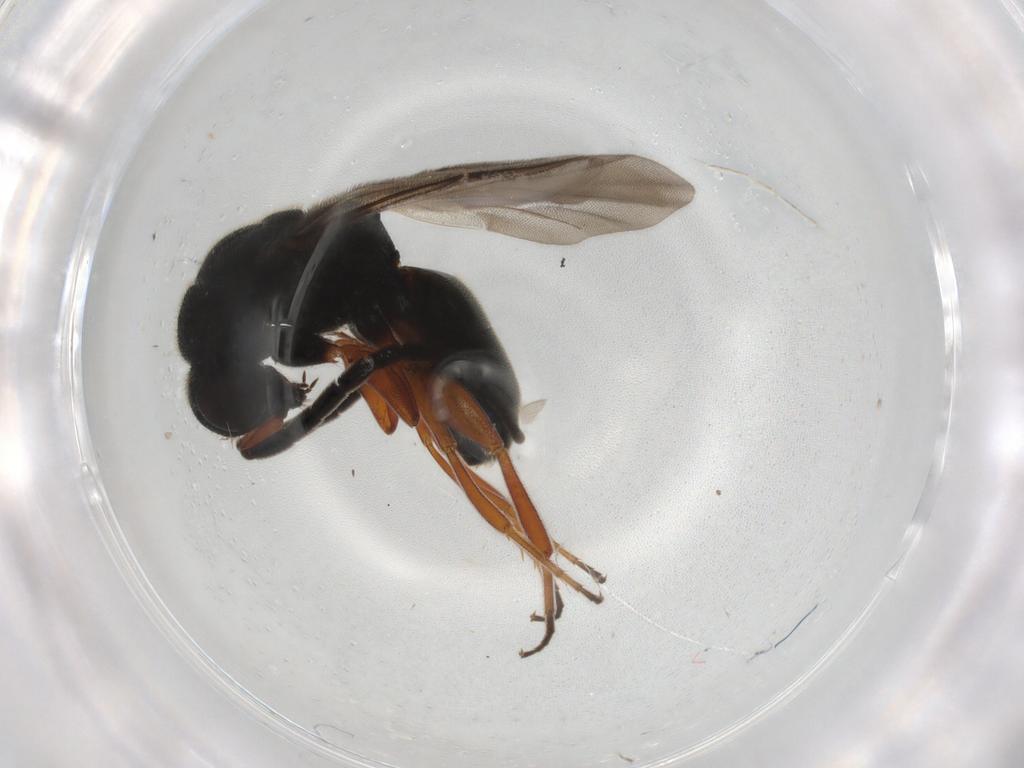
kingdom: Animalia
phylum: Arthropoda
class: Insecta
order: Hymenoptera
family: Chrysididae
